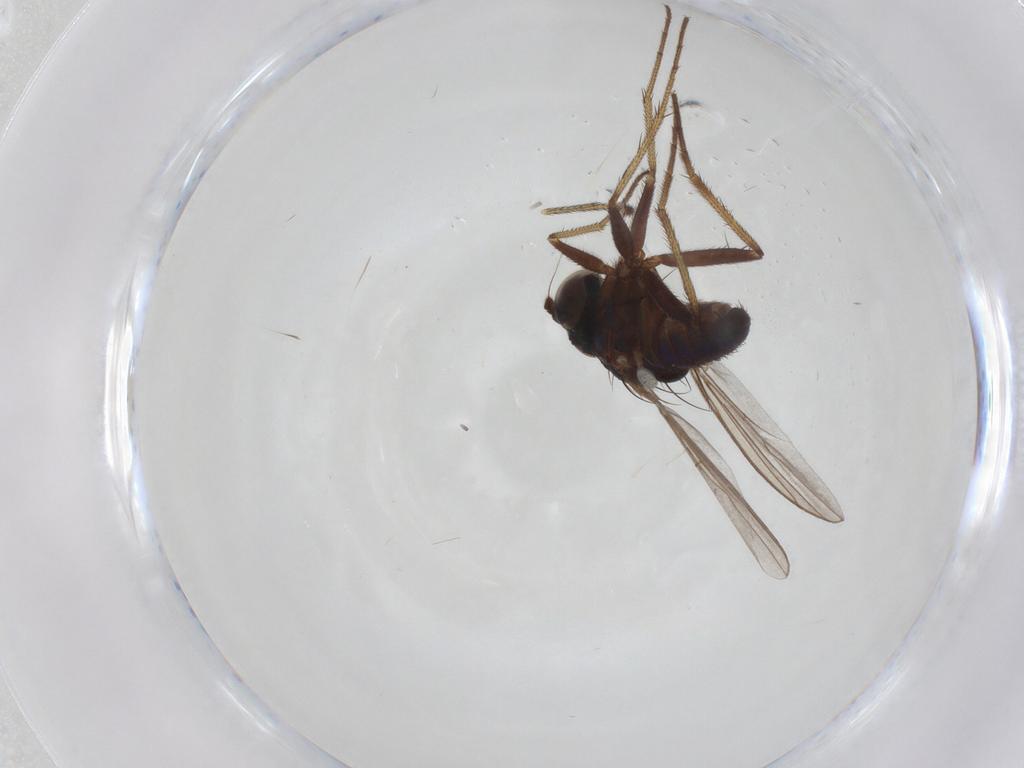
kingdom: Animalia
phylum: Arthropoda
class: Insecta
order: Diptera
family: Dolichopodidae
